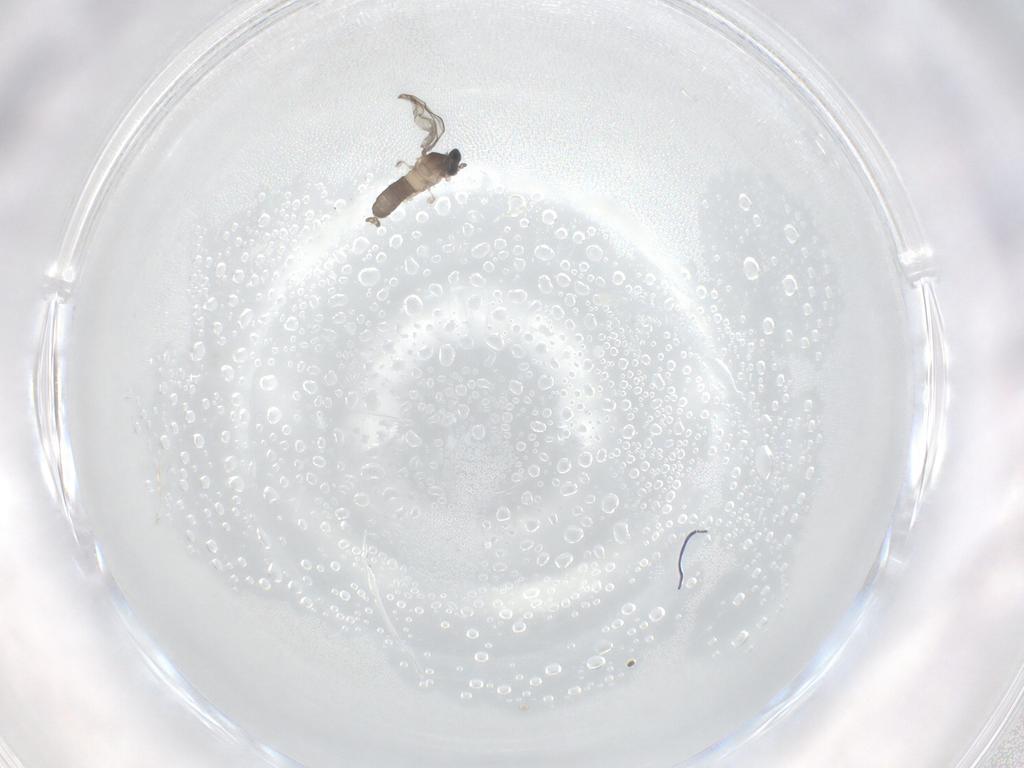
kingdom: Animalia
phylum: Arthropoda
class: Insecta
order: Diptera
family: Cecidomyiidae
